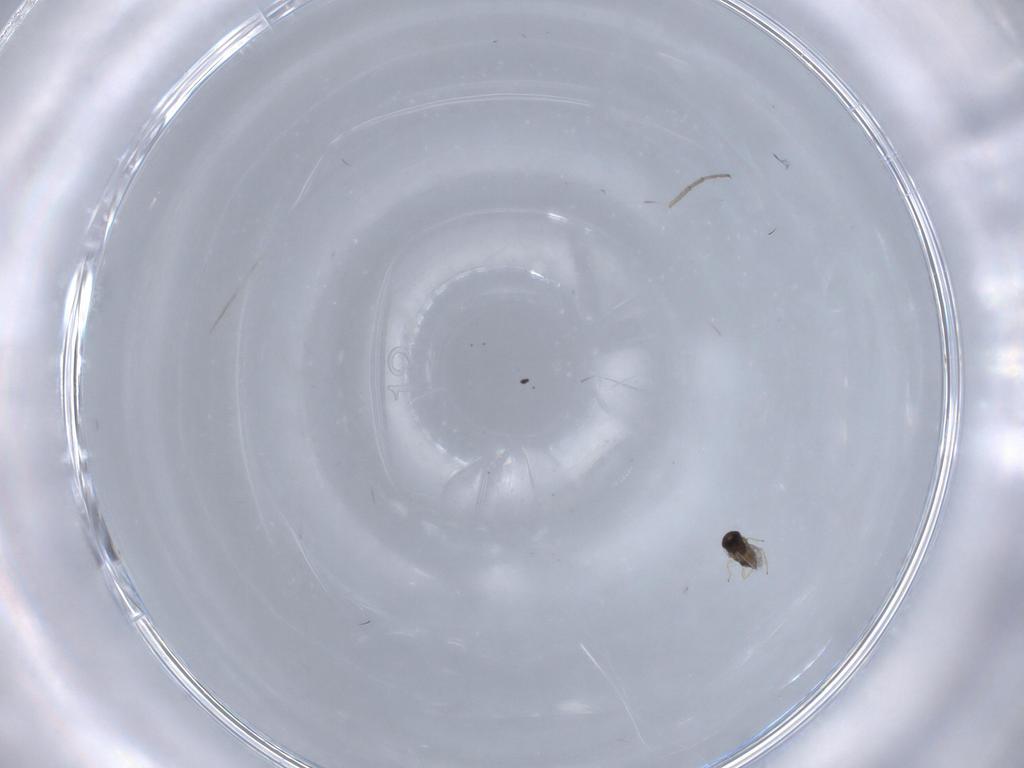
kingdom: Animalia
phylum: Arthropoda
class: Insecta
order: Hymenoptera
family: Encyrtidae
